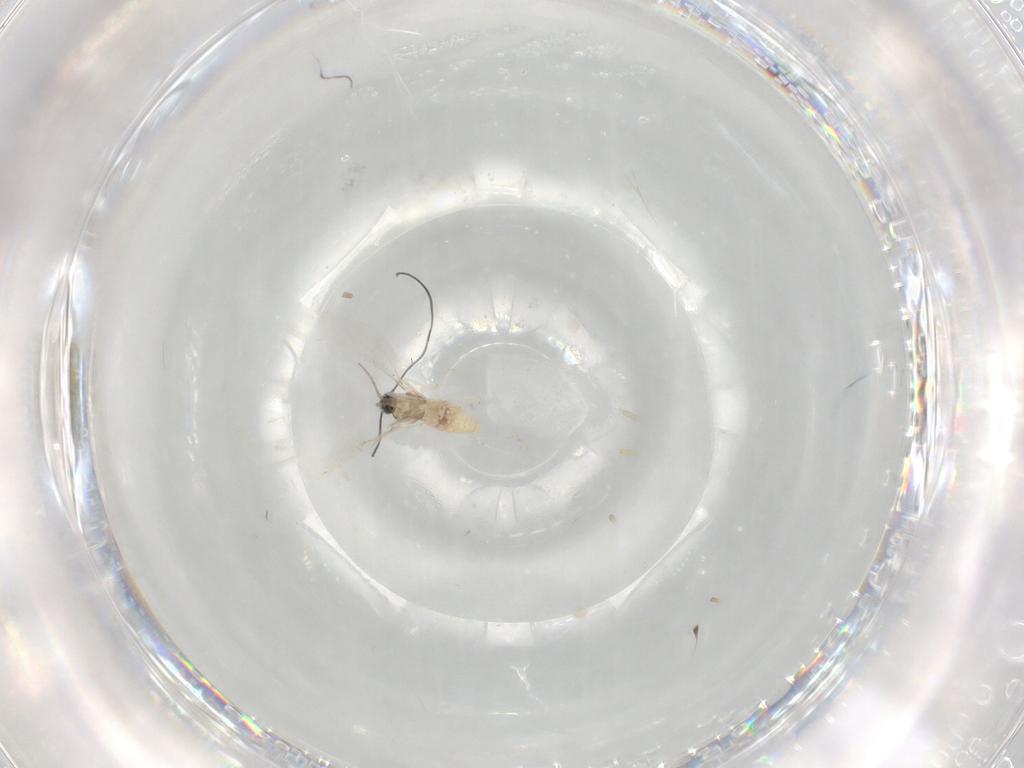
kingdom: Animalia
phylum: Arthropoda
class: Insecta
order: Diptera
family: Cecidomyiidae
